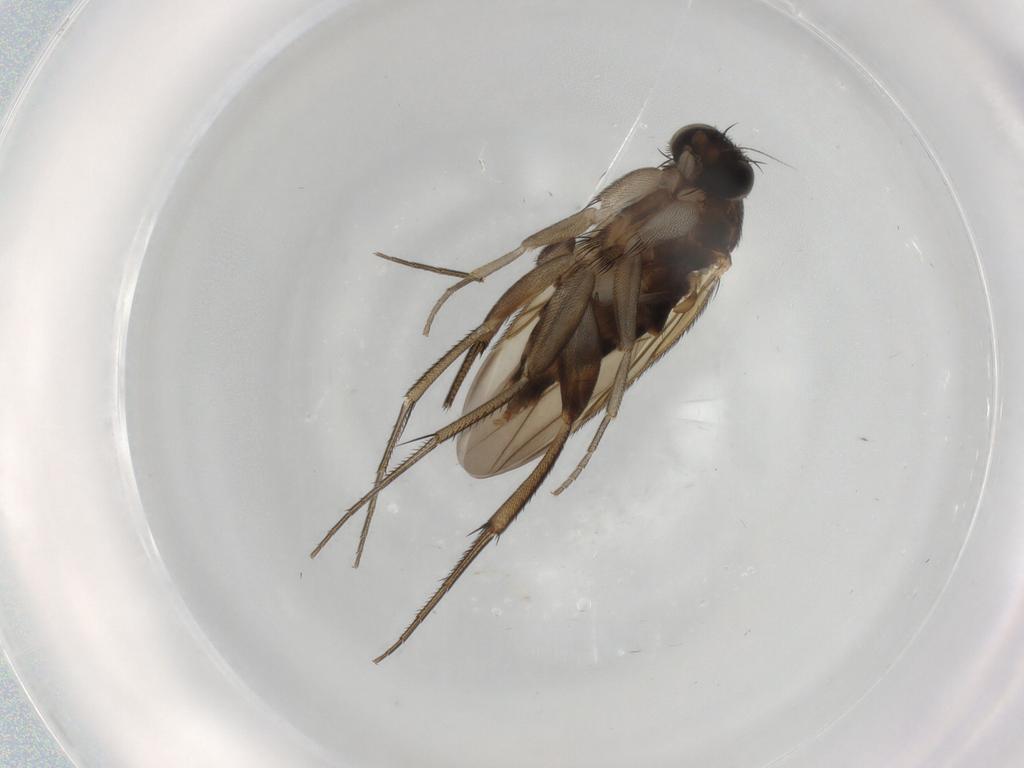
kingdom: Animalia
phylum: Arthropoda
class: Insecta
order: Diptera
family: Phoridae
